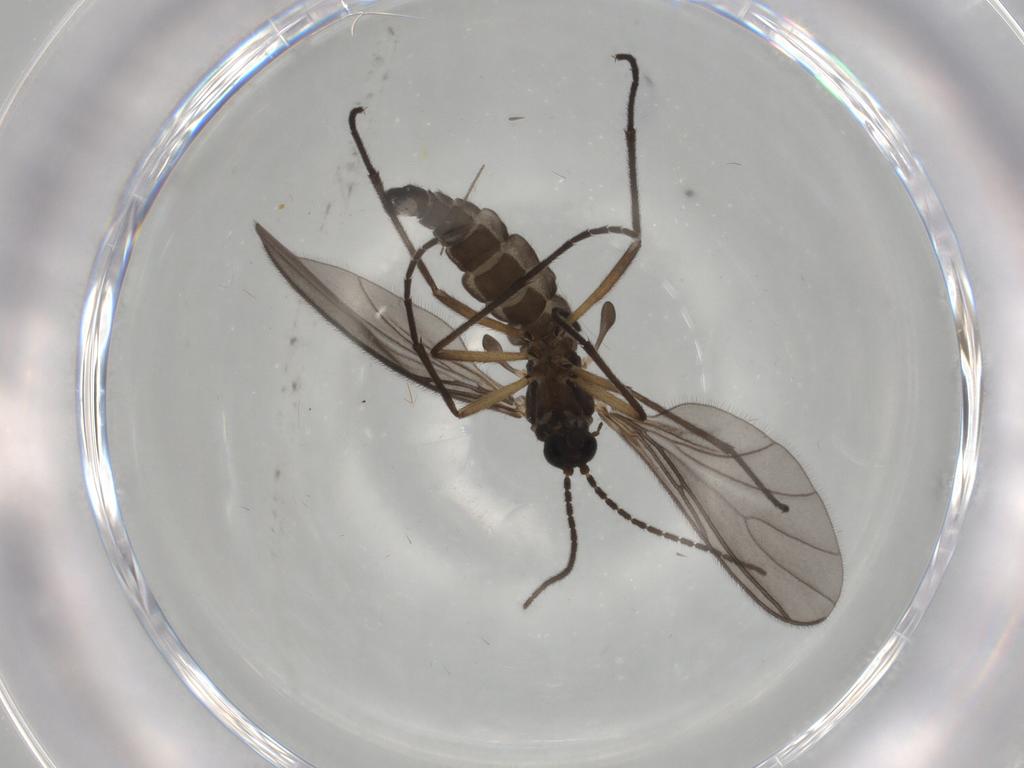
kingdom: Animalia
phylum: Arthropoda
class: Insecta
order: Diptera
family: Sciaridae
